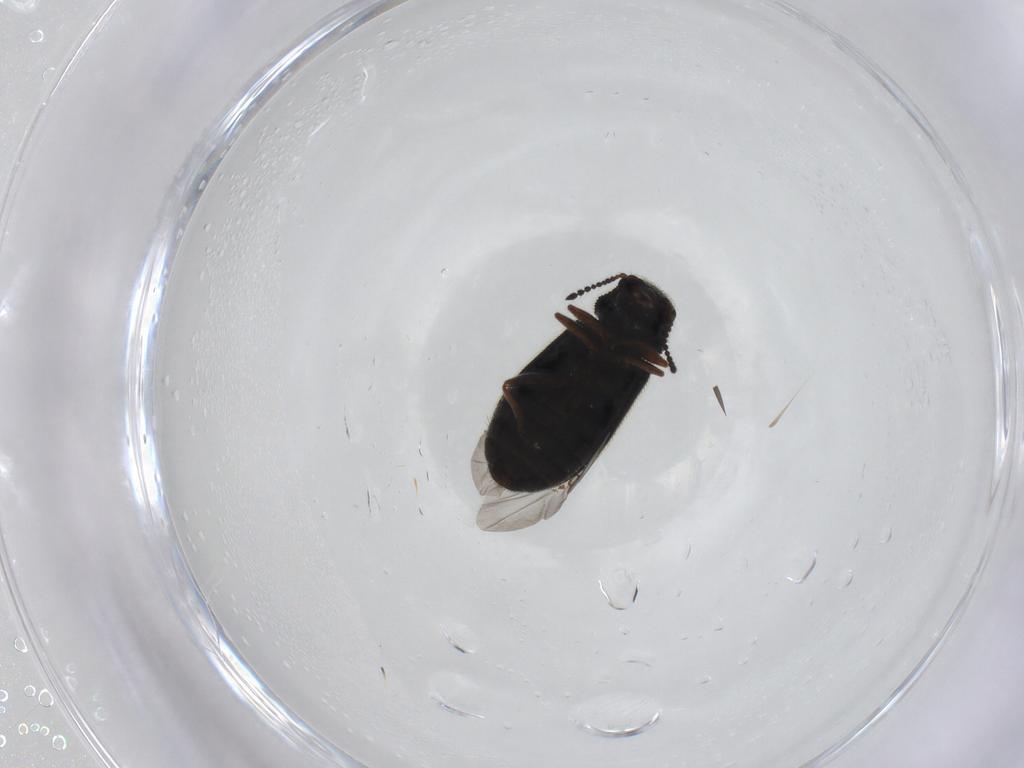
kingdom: Animalia
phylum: Arthropoda
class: Insecta
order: Coleoptera
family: Melyridae
